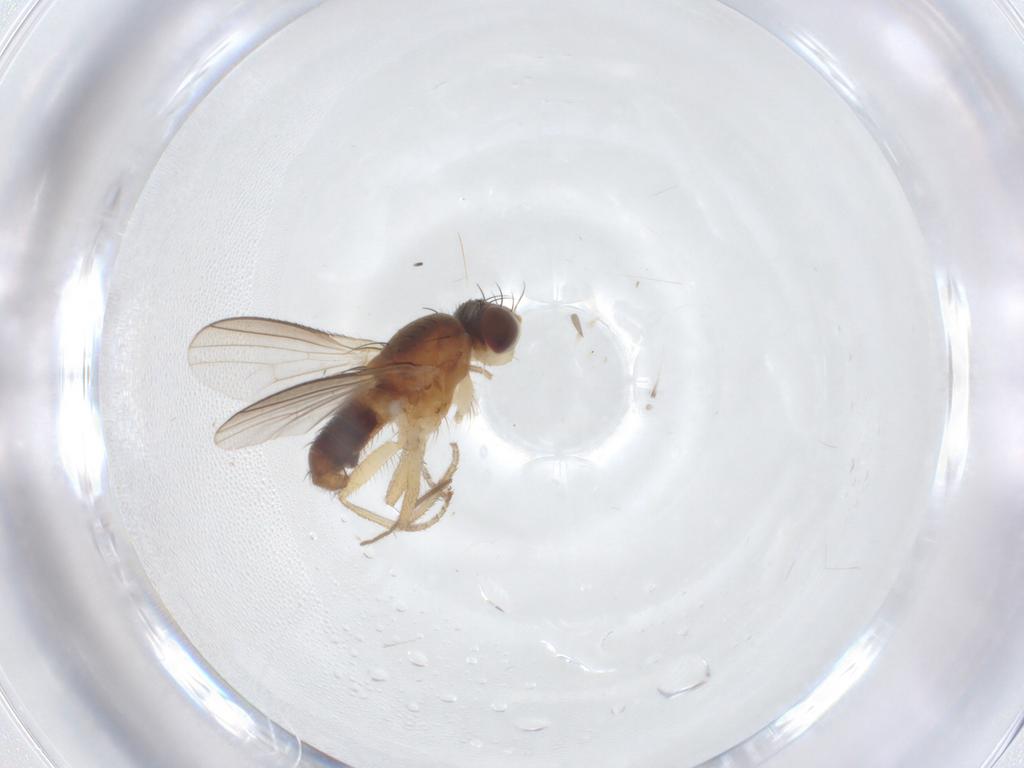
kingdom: Animalia
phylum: Arthropoda
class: Insecta
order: Diptera
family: Heleomyzidae
